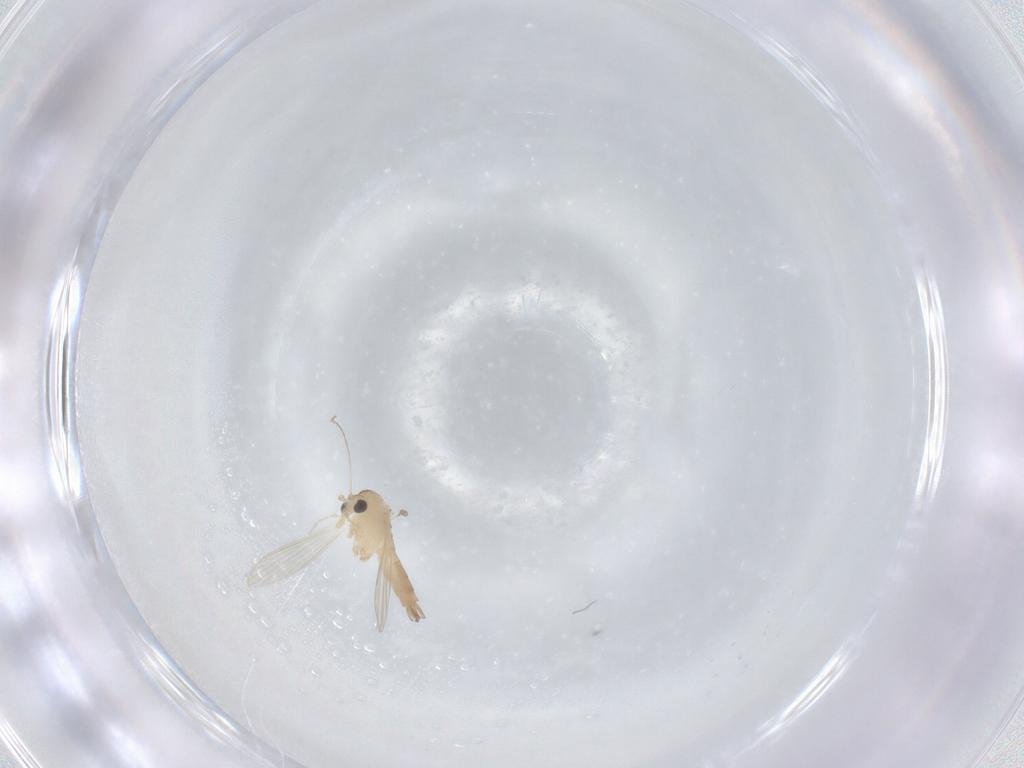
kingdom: Animalia
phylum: Arthropoda
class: Insecta
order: Diptera
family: Psychodidae
